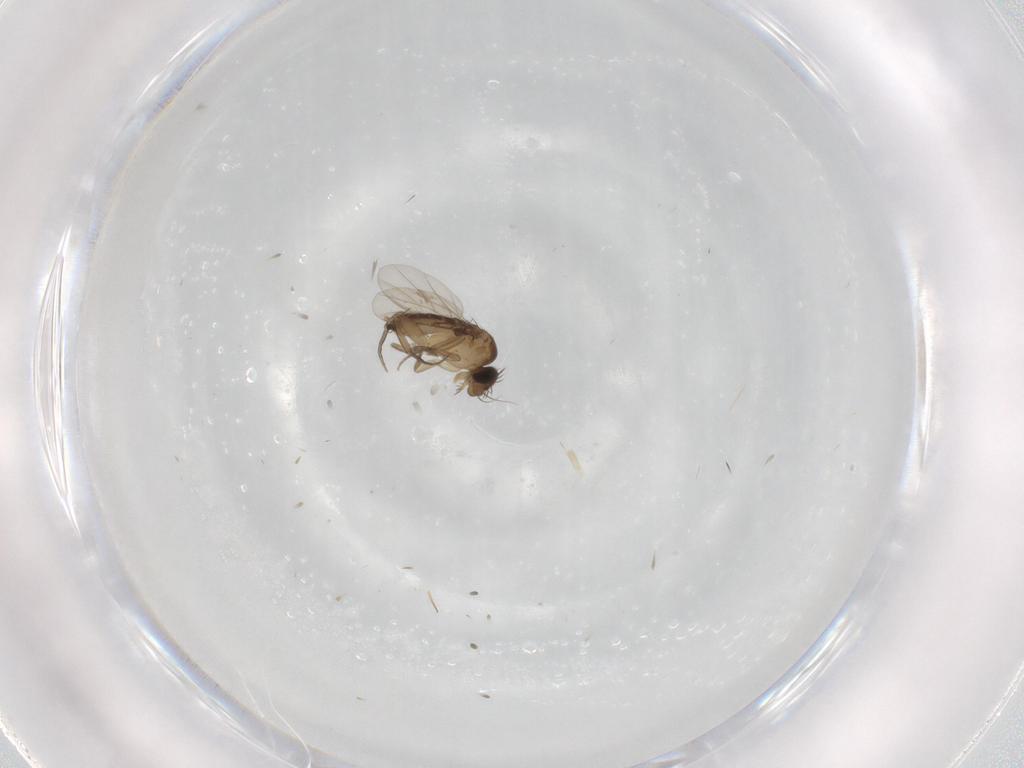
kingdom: Animalia
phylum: Arthropoda
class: Insecta
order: Diptera
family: Phoridae
